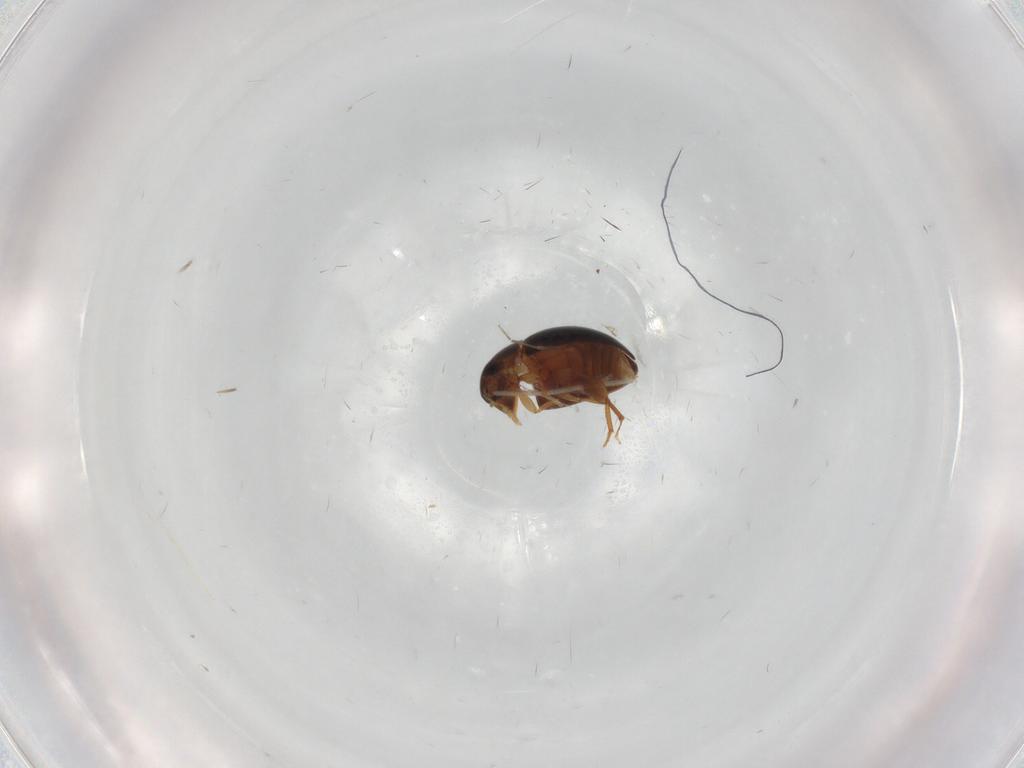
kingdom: Animalia
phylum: Arthropoda
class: Insecta
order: Coleoptera
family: Phalacridae
